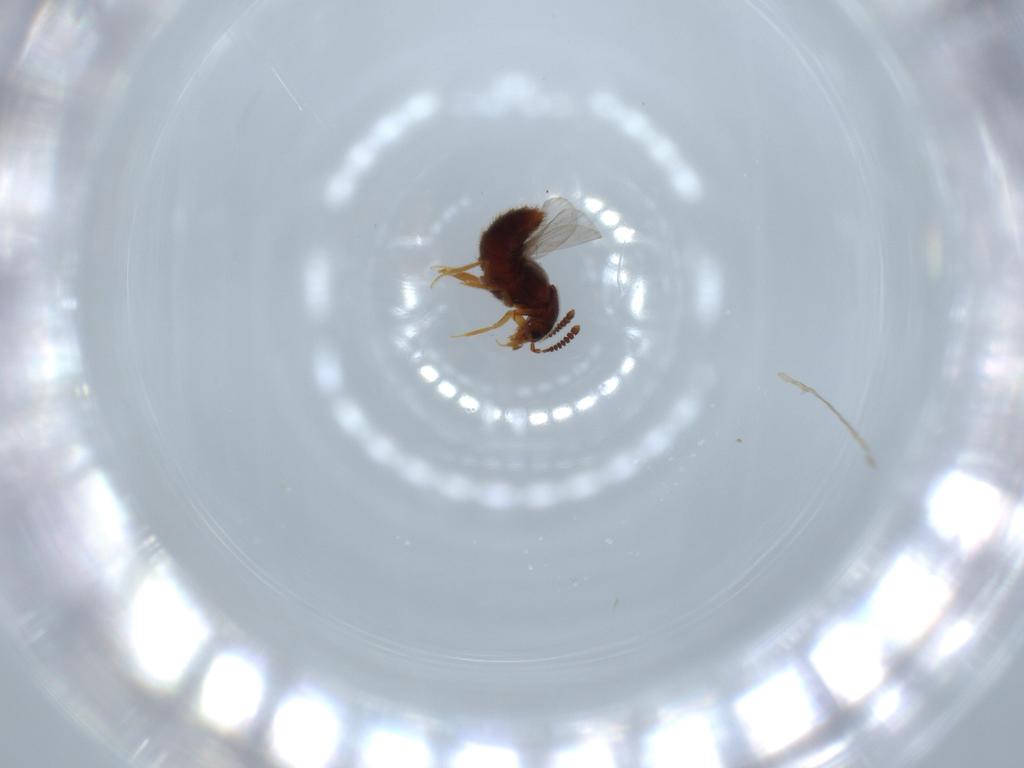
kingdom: Animalia
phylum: Arthropoda
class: Insecta
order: Coleoptera
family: Staphylinidae
